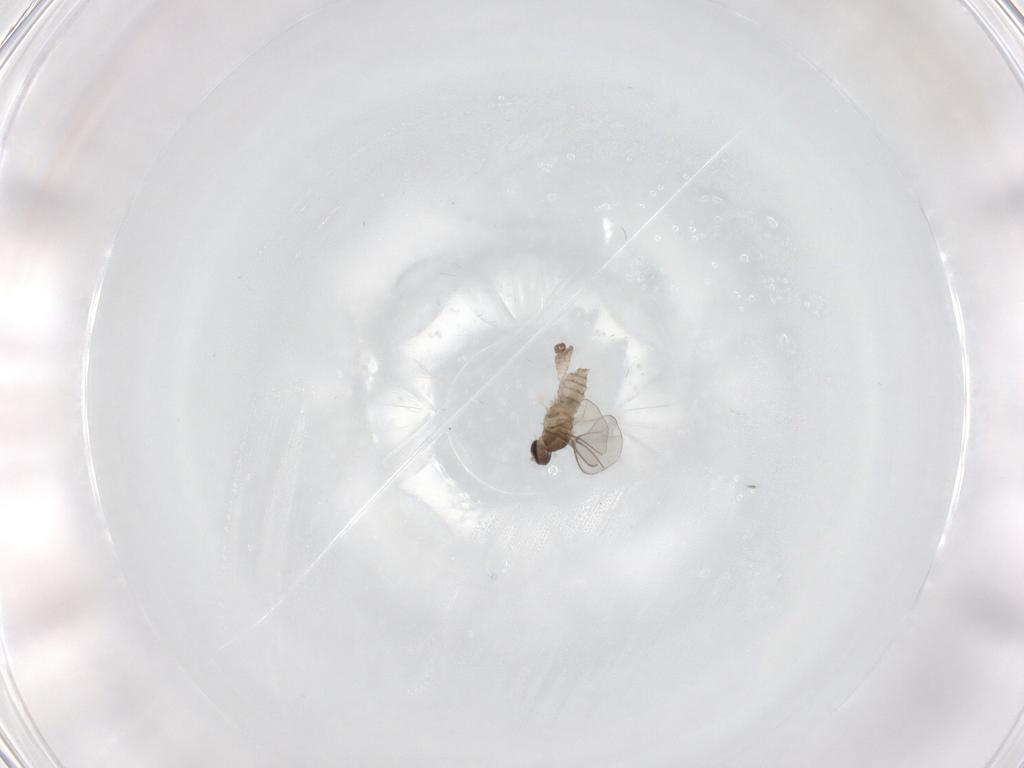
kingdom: Animalia
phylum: Arthropoda
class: Insecta
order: Diptera
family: Cecidomyiidae
